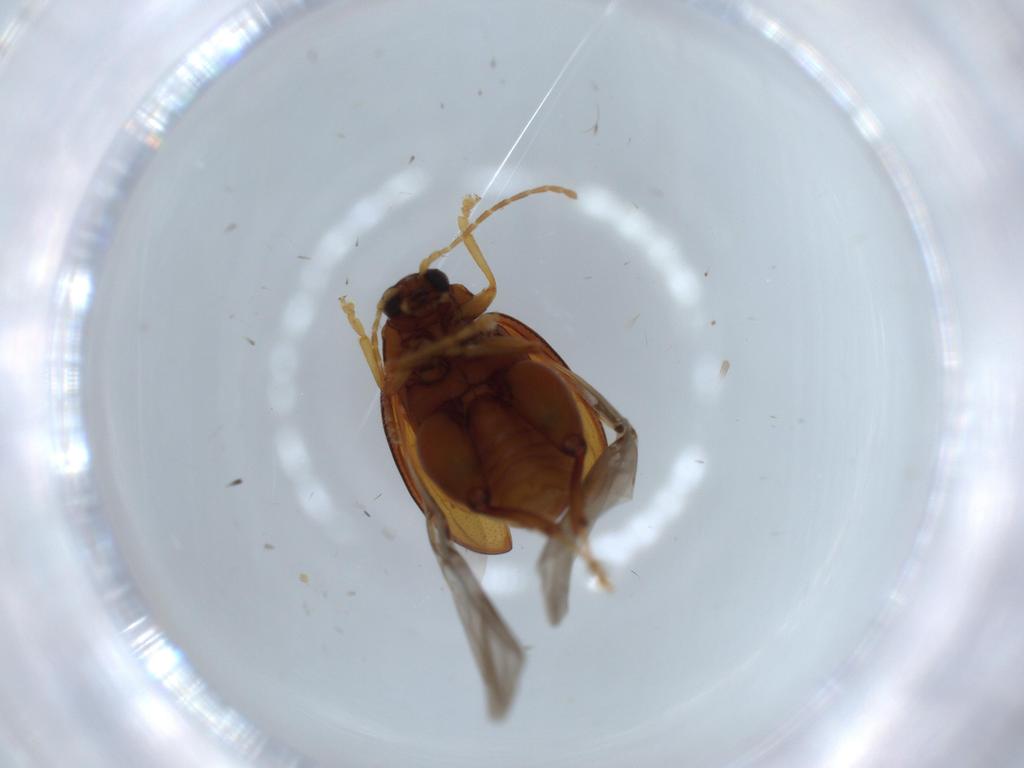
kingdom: Animalia
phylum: Arthropoda
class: Insecta
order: Coleoptera
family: Chrysomelidae
